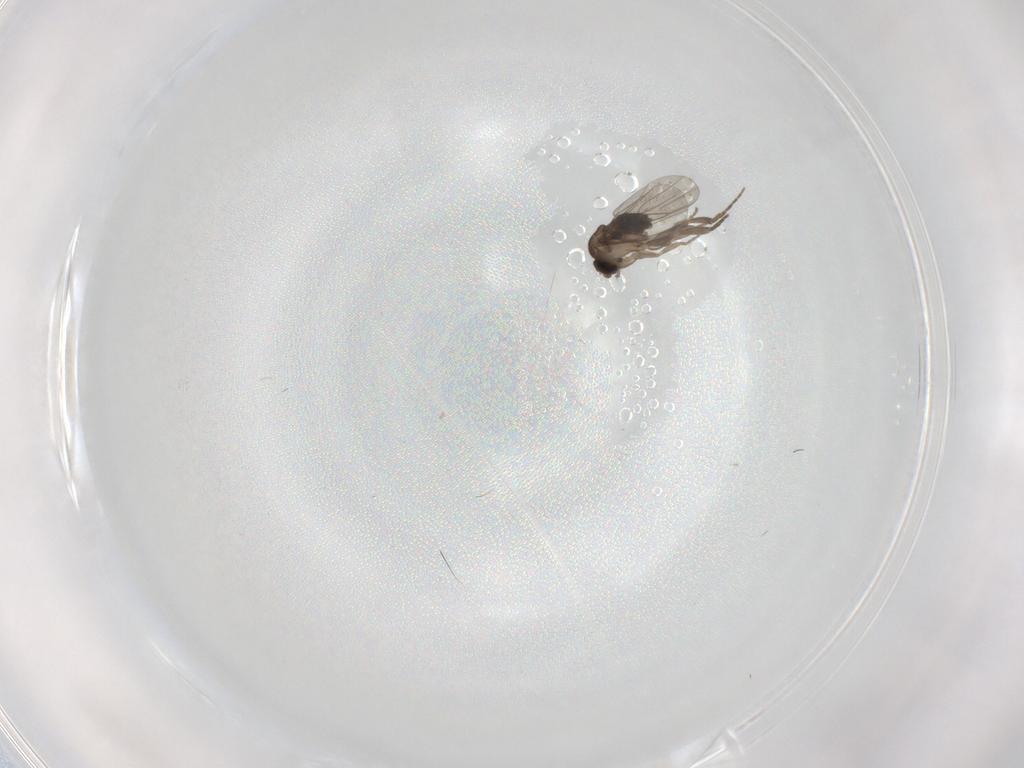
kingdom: Animalia
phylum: Arthropoda
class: Insecta
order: Diptera
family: Phoridae
